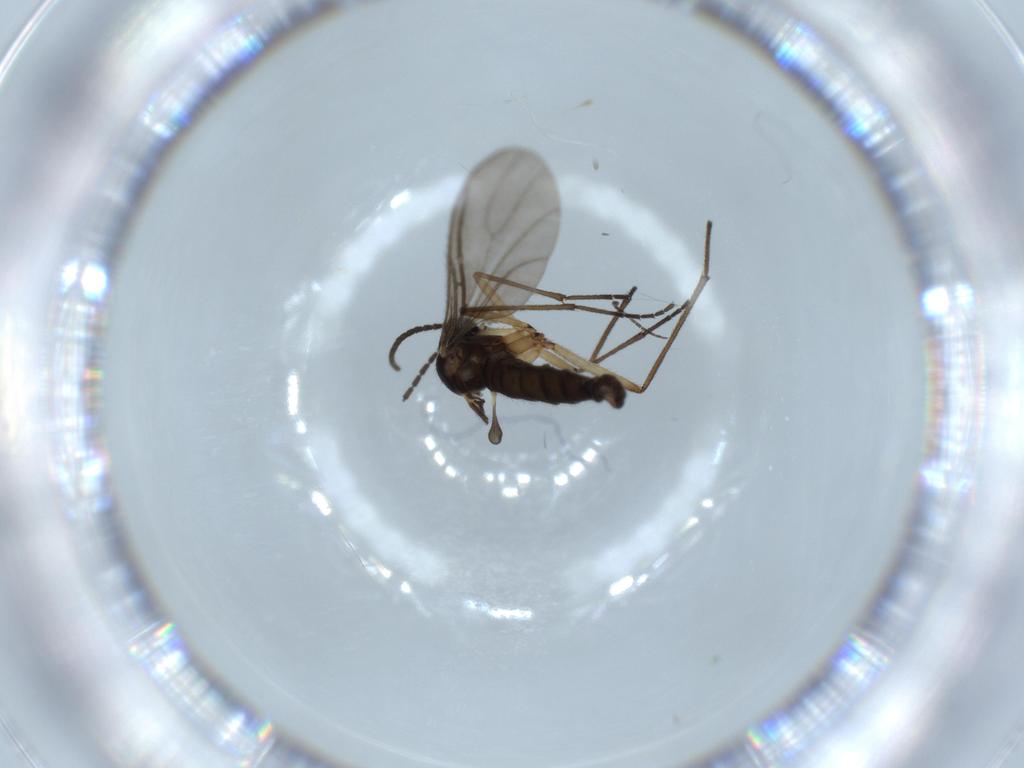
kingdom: Animalia
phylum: Arthropoda
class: Insecta
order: Diptera
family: Sciaridae
